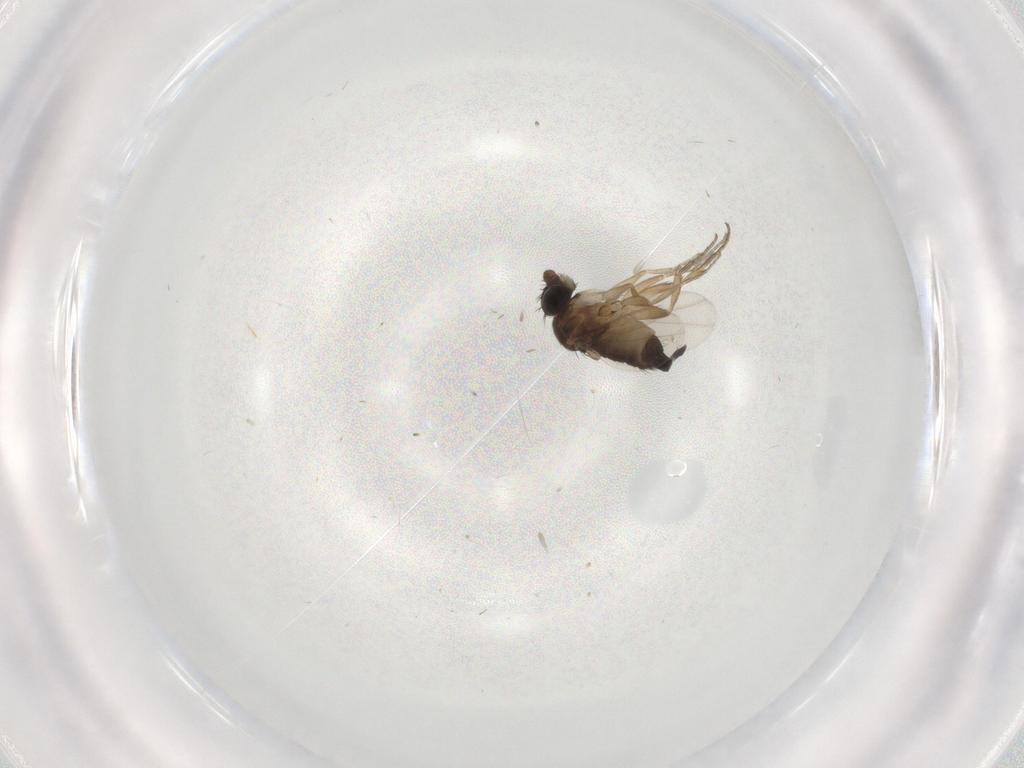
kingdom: Animalia
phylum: Arthropoda
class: Insecta
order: Diptera
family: Phoridae
